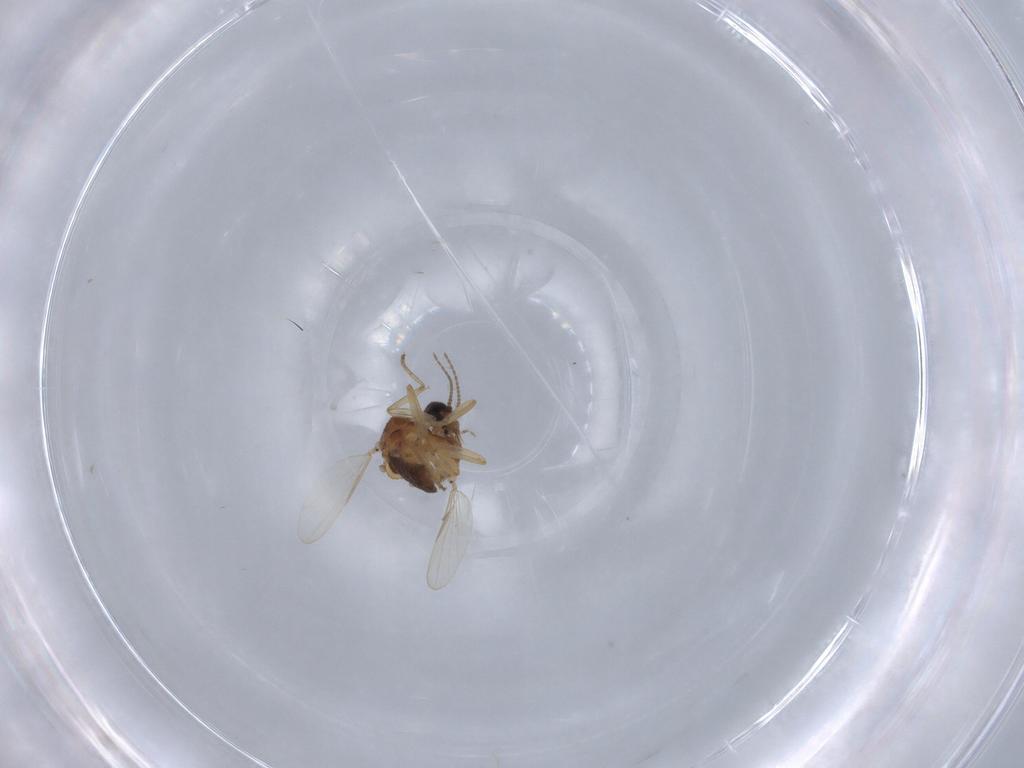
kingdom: Animalia
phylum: Arthropoda
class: Insecta
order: Diptera
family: Ceratopogonidae
